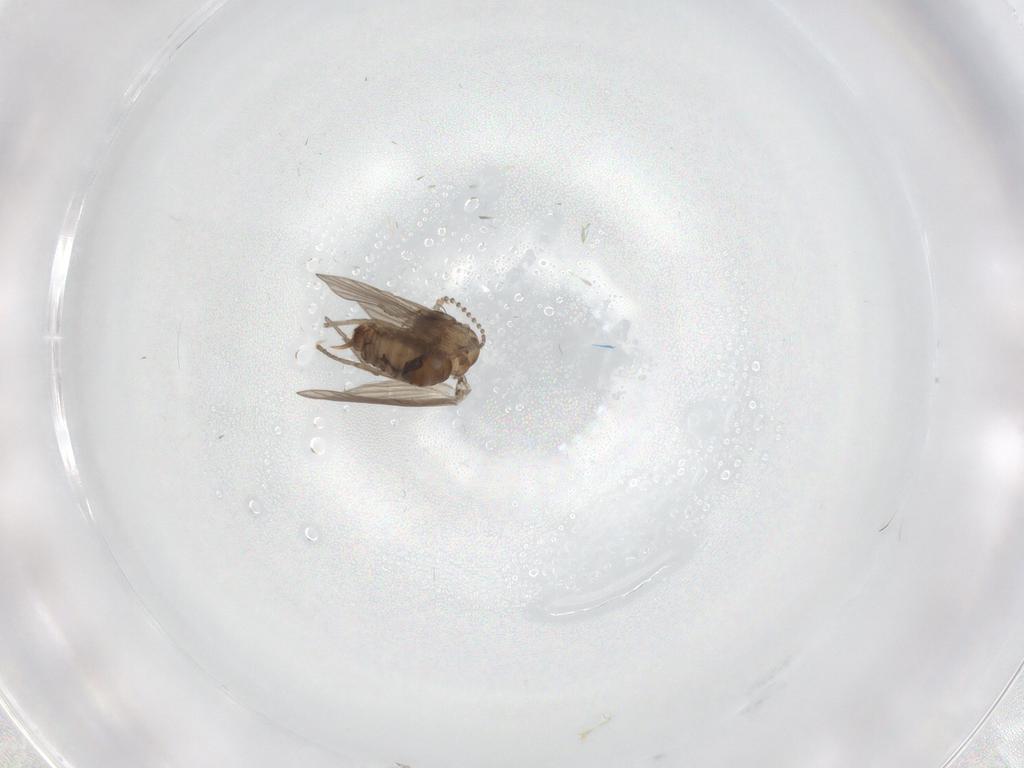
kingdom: Animalia
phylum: Arthropoda
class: Insecta
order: Diptera
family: Psychodidae
